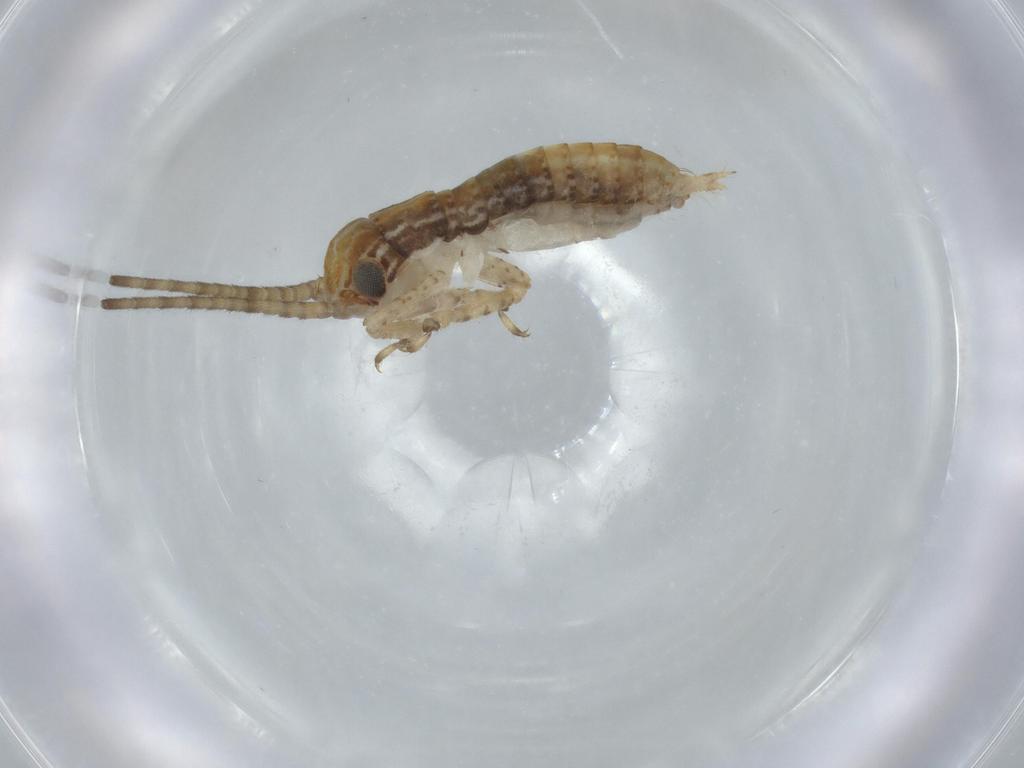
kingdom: Animalia
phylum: Arthropoda
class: Insecta
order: Orthoptera
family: Gryllidae
